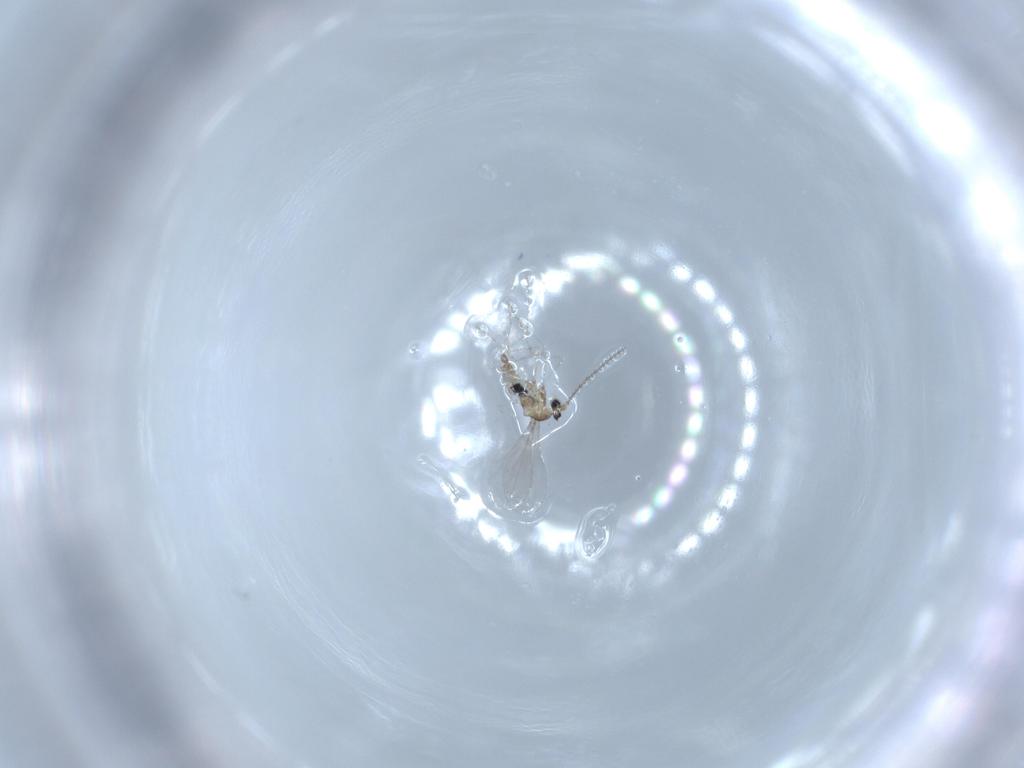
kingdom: Animalia
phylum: Arthropoda
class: Insecta
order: Diptera
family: Cecidomyiidae
